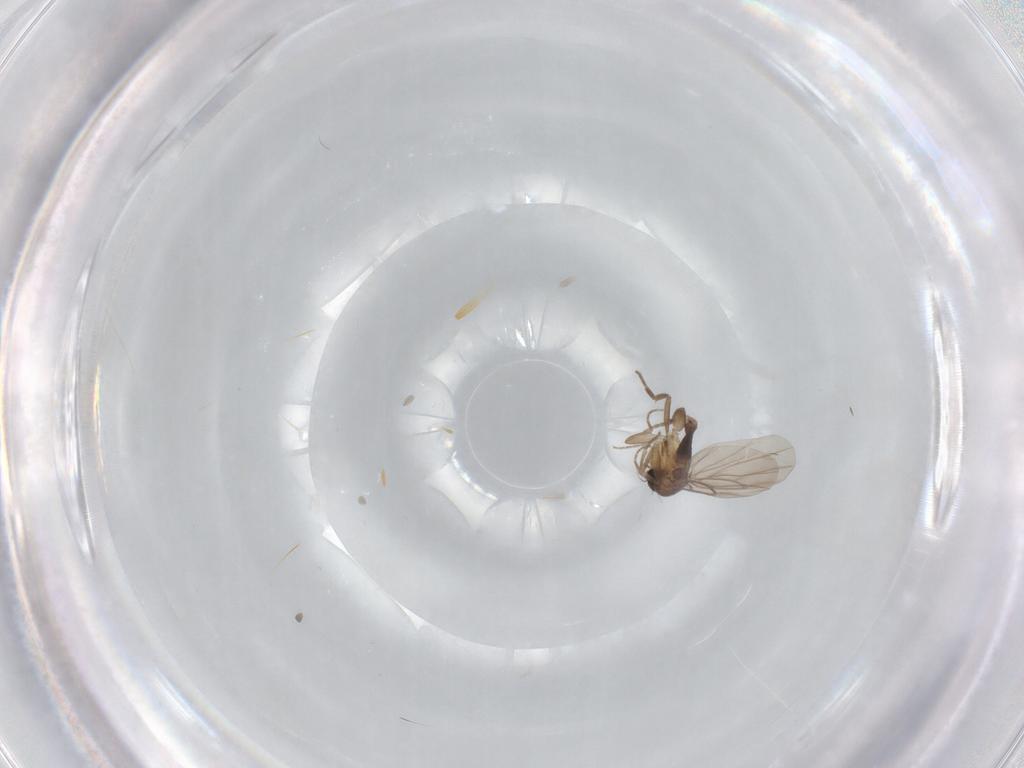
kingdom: Animalia
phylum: Arthropoda
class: Insecta
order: Diptera
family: Phoridae
